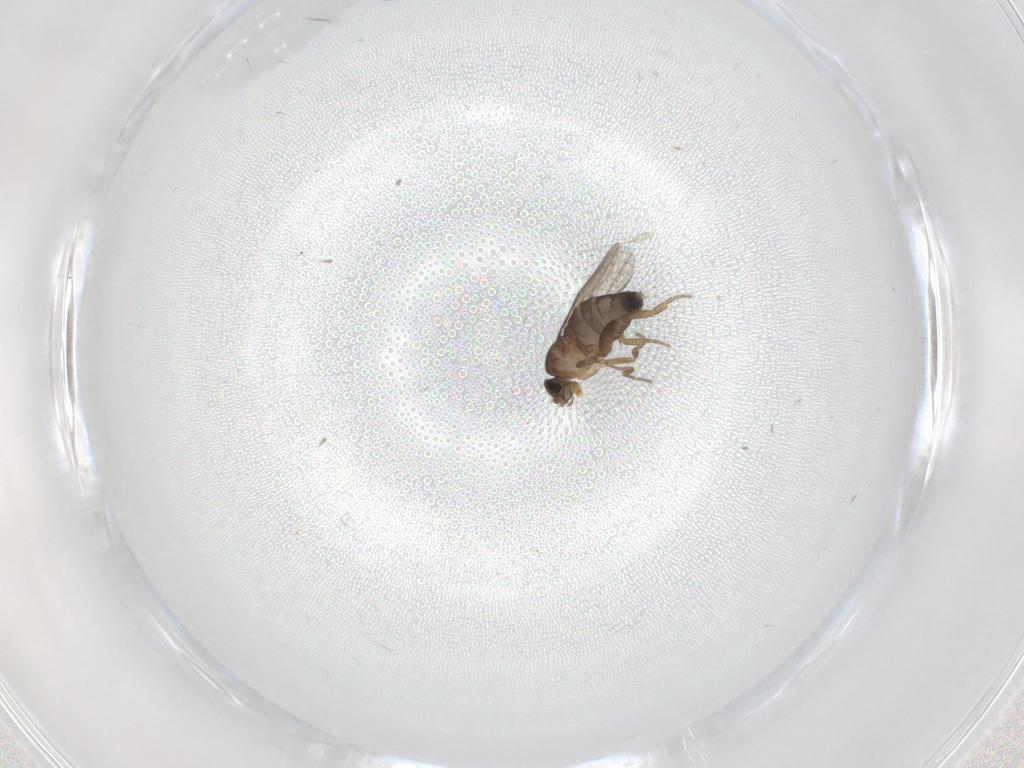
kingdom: Animalia
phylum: Arthropoda
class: Insecta
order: Diptera
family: Phoridae
